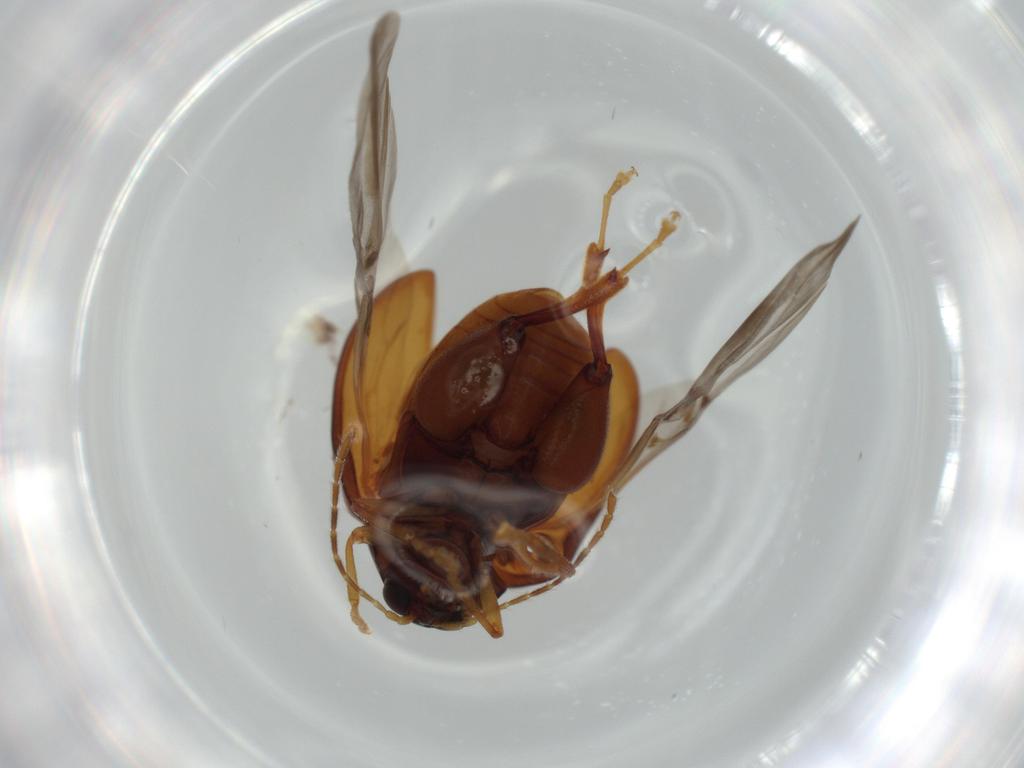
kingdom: Animalia
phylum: Arthropoda
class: Insecta
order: Coleoptera
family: Chrysomelidae
